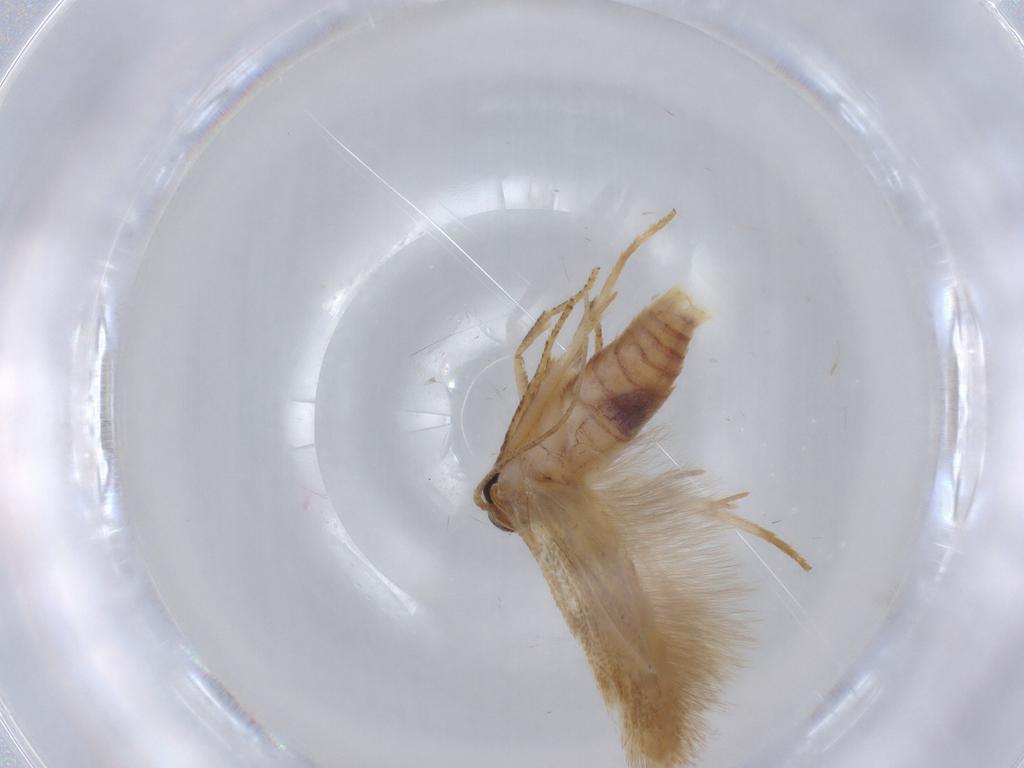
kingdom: Animalia
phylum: Arthropoda
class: Insecta
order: Lepidoptera
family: Blastobasidae
